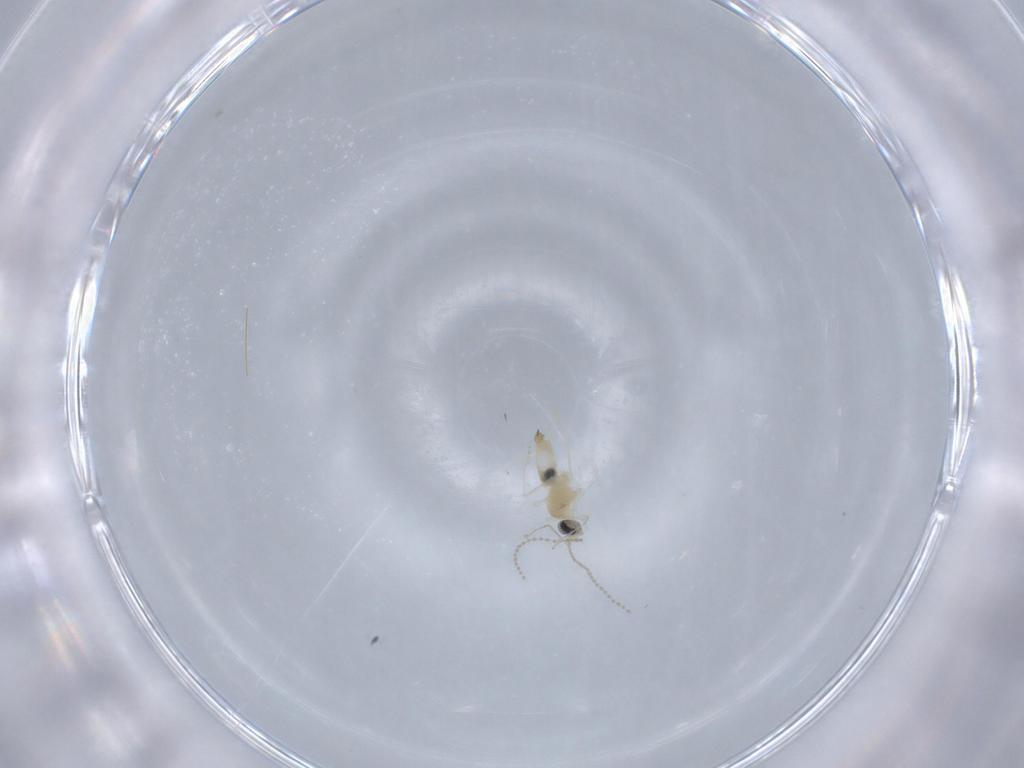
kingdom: Animalia
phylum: Arthropoda
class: Insecta
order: Diptera
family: Cecidomyiidae
